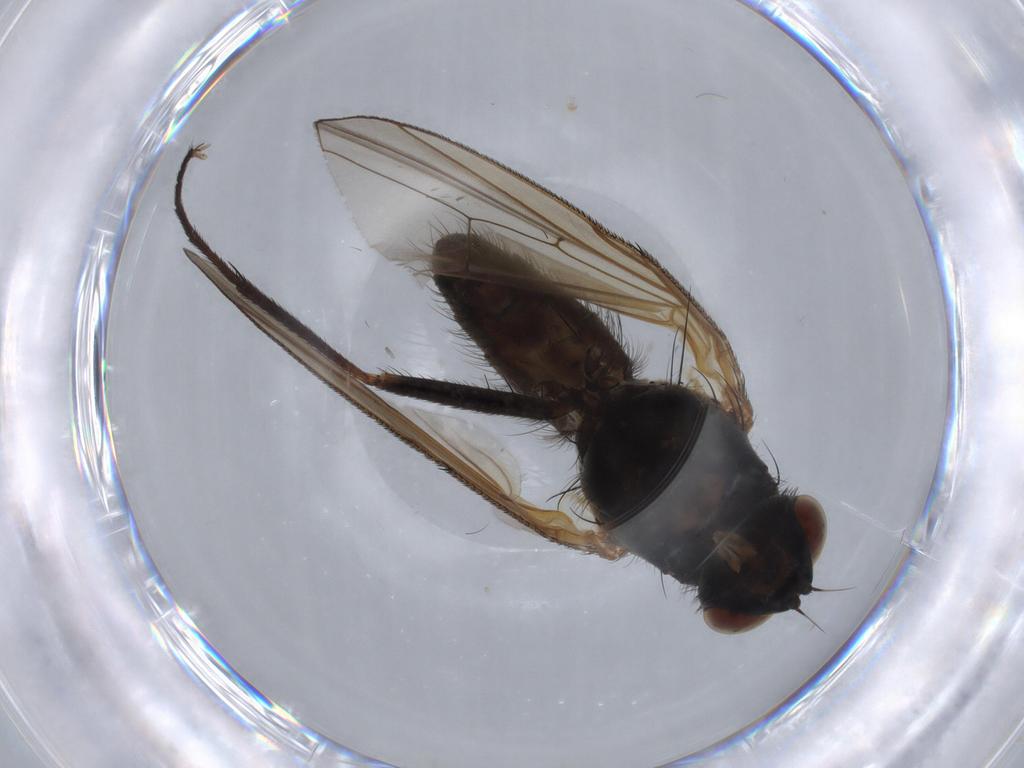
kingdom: Animalia
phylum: Arthropoda
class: Insecta
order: Diptera
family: Anthomyiidae
